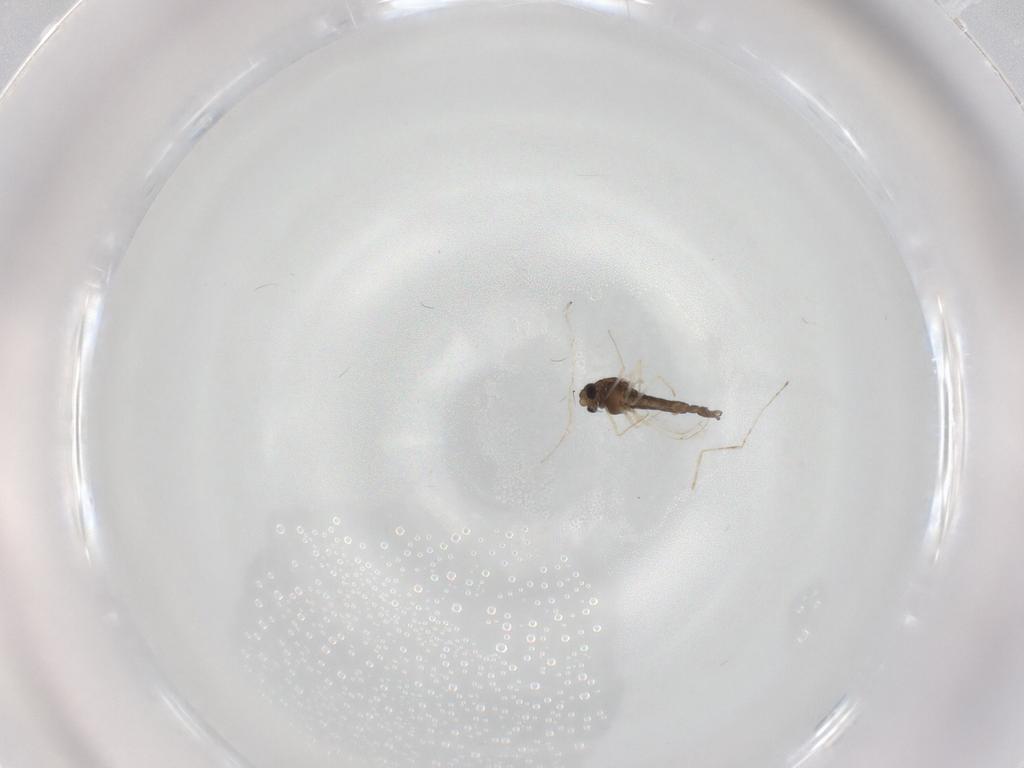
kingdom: Animalia
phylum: Arthropoda
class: Insecta
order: Diptera
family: Chironomidae
